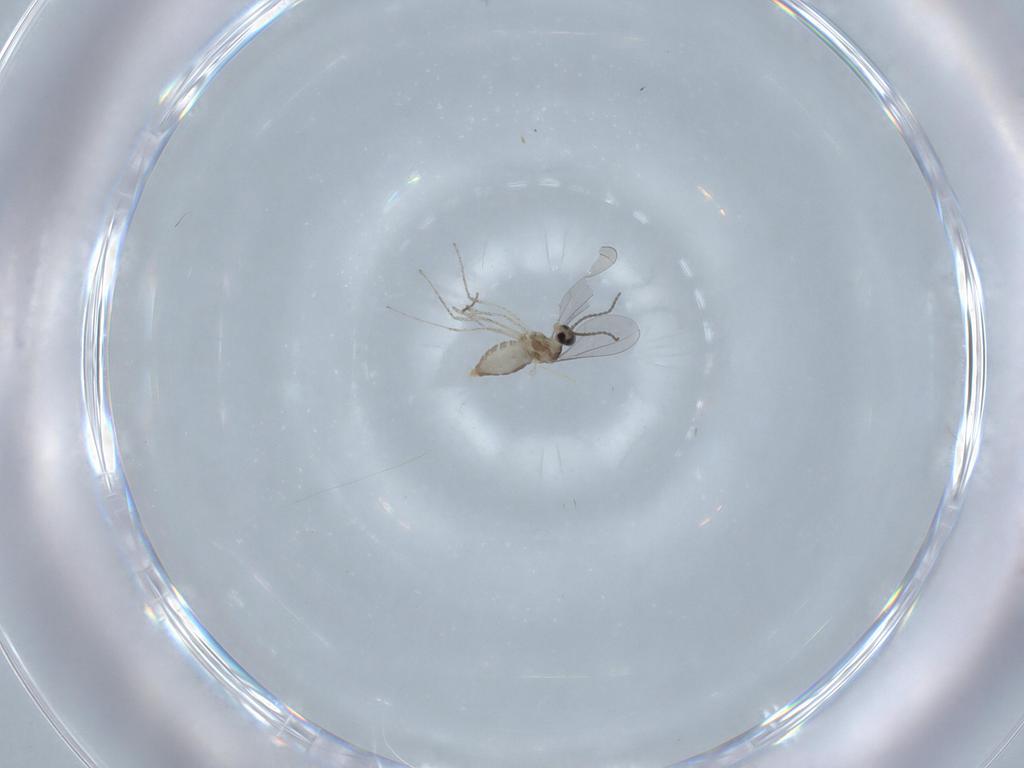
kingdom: Animalia
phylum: Arthropoda
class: Insecta
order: Diptera
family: Cecidomyiidae
